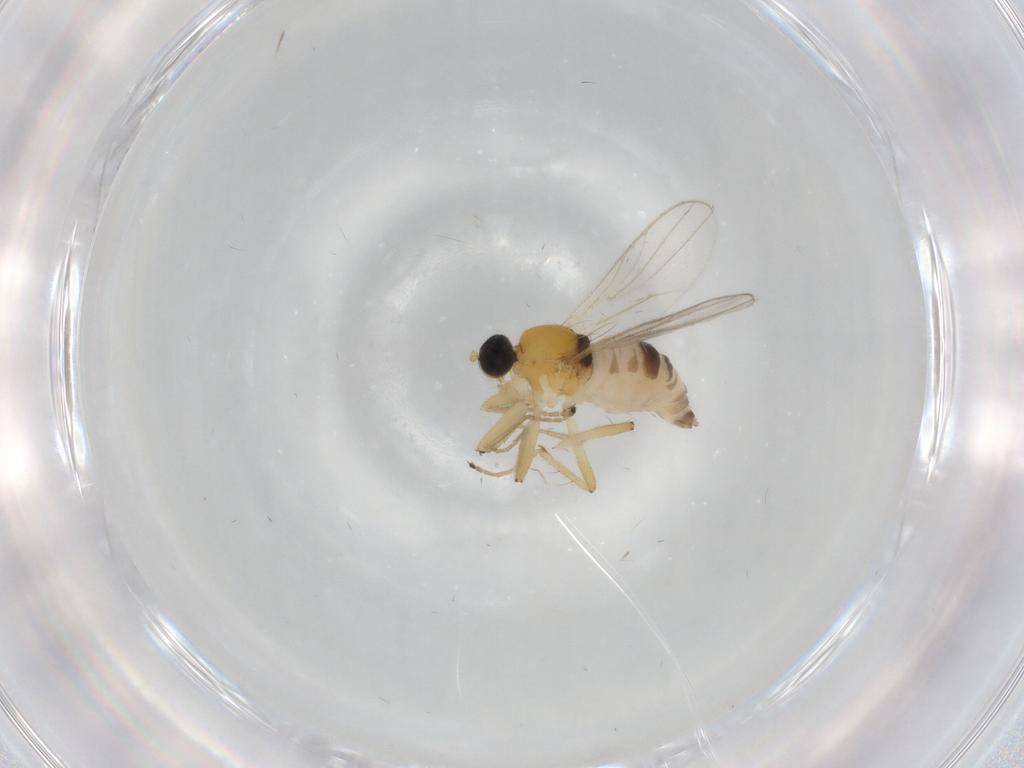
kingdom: Animalia
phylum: Arthropoda
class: Insecta
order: Diptera
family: Hybotidae
